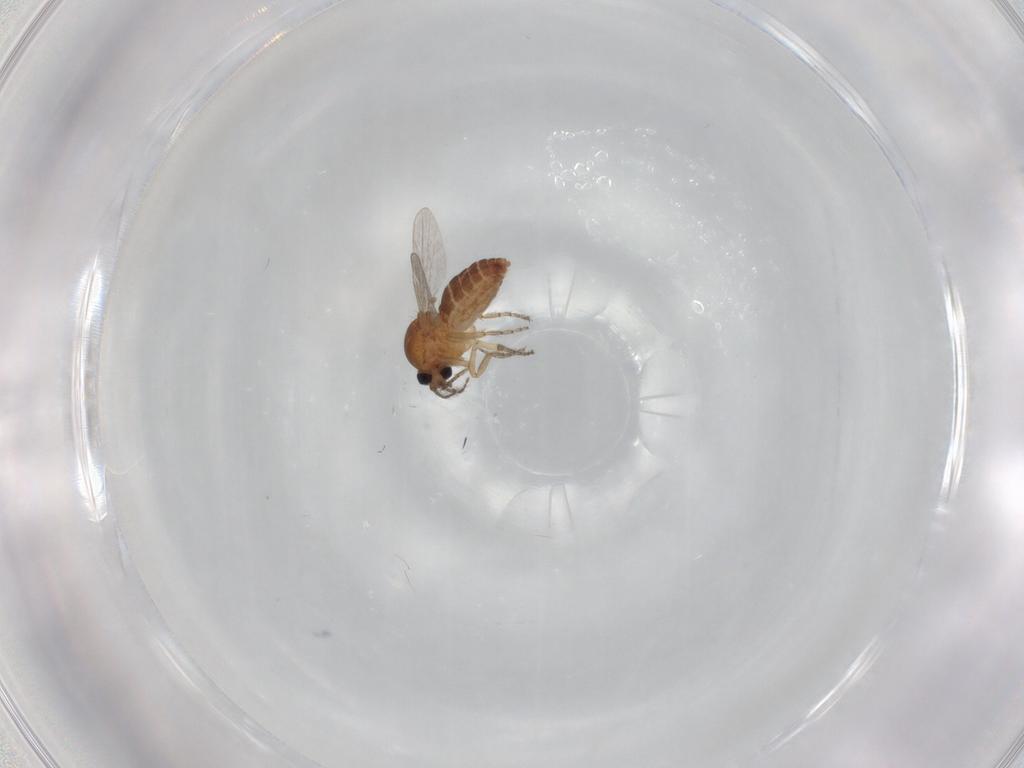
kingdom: Animalia
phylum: Arthropoda
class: Insecta
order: Diptera
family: Ceratopogonidae
